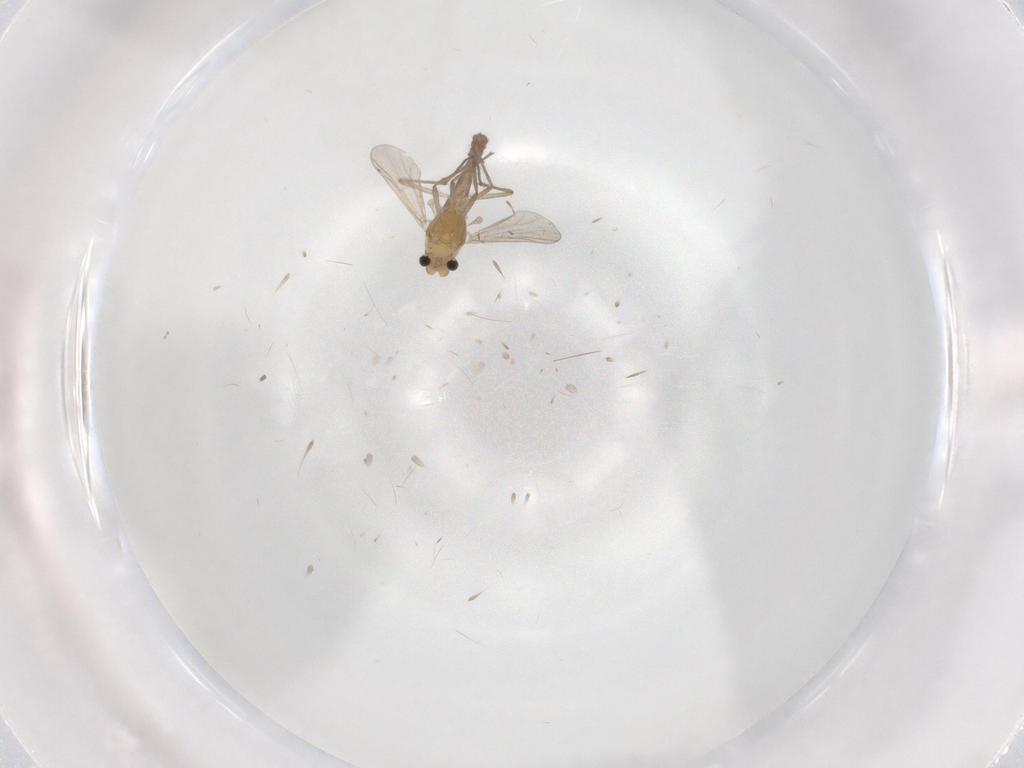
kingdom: Animalia
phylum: Arthropoda
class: Insecta
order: Diptera
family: Chironomidae
